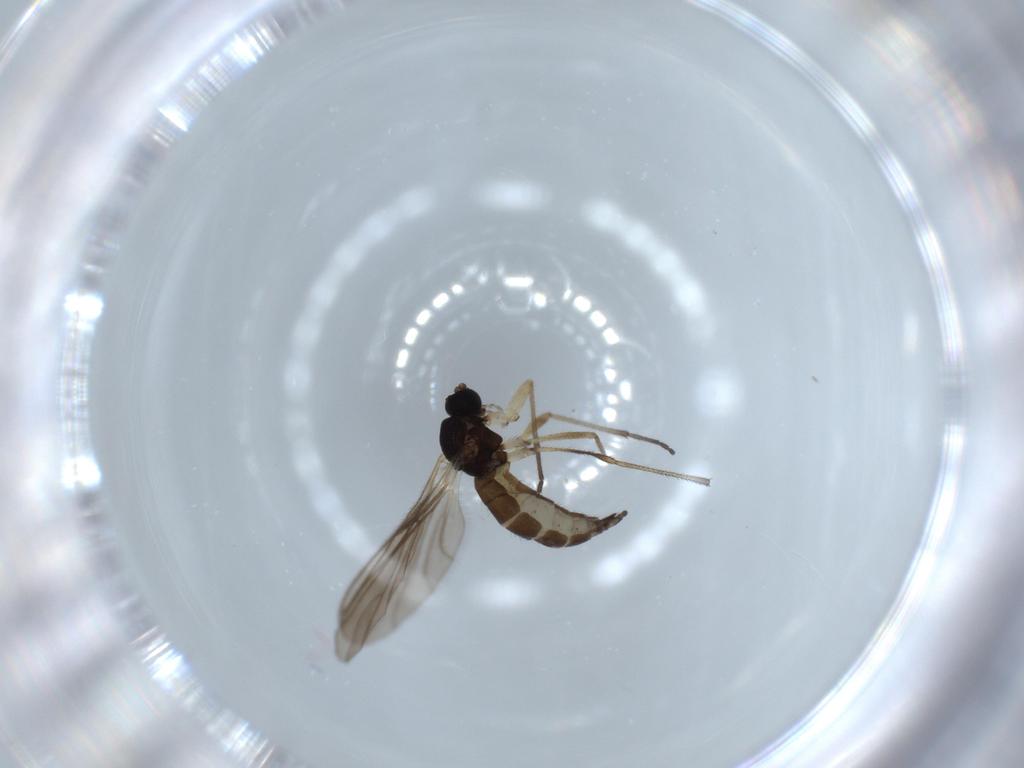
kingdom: Animalia
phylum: Arthropoda
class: Insecta
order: Diptera
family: Sciaridae
